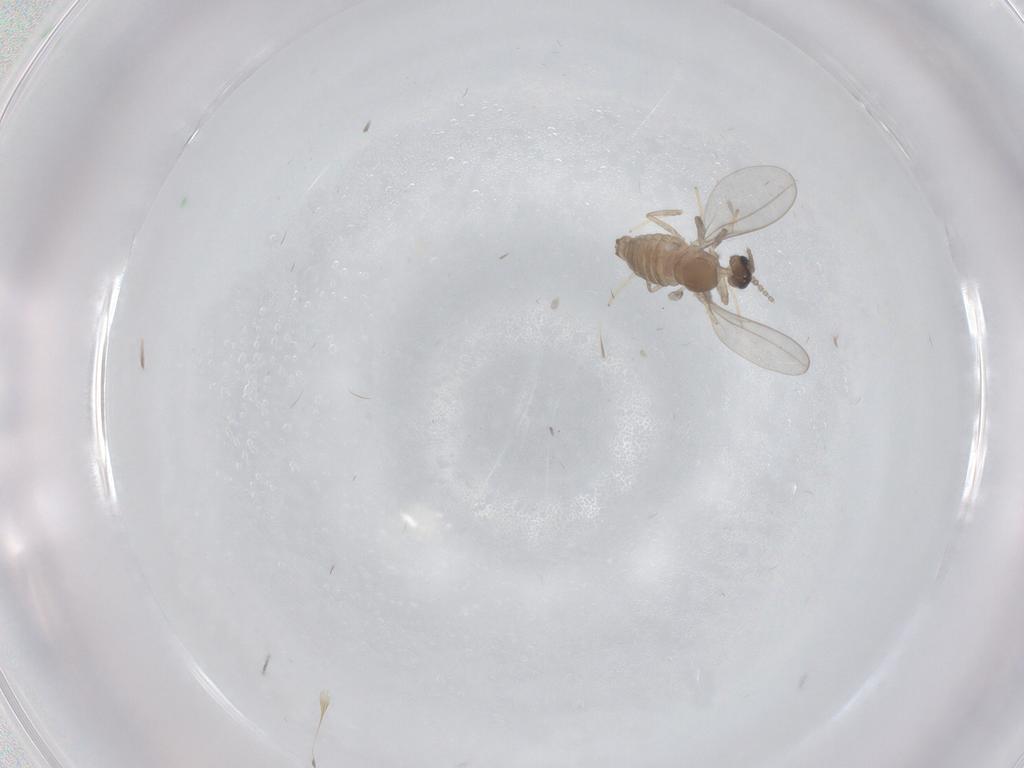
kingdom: Animalia
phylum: Arthropoda
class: Insecta
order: Diptera
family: Cecidomyiidae
